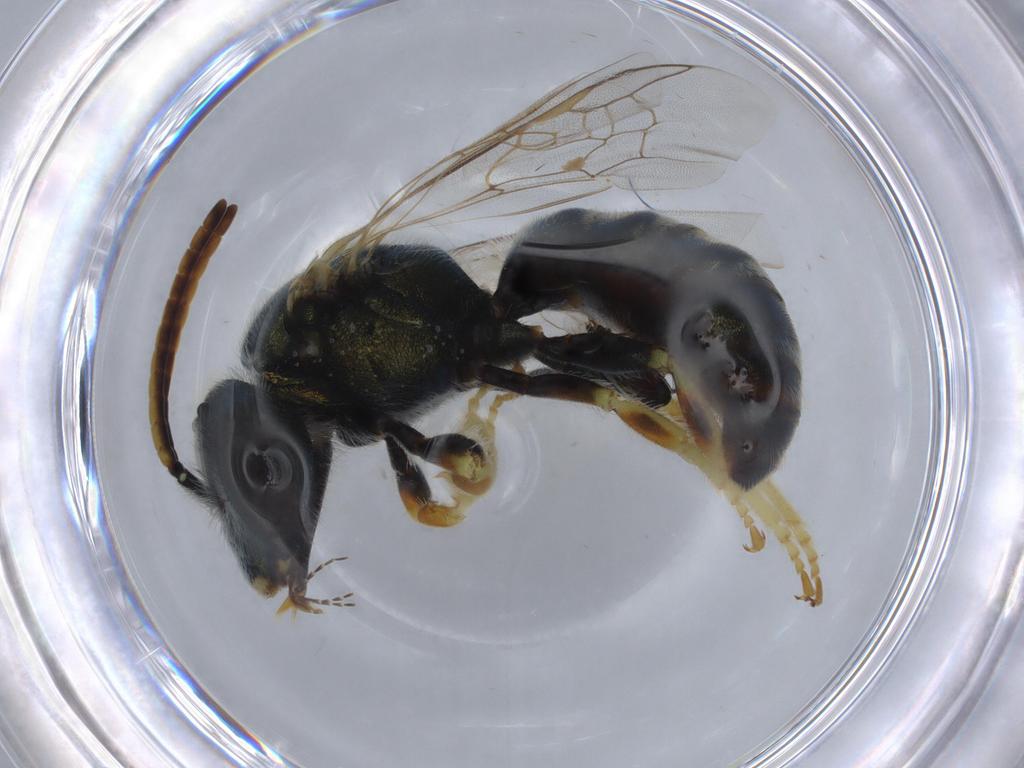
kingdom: Animalia
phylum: Arthropoda
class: Insecta
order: Hymenoptera
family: Halictidae
